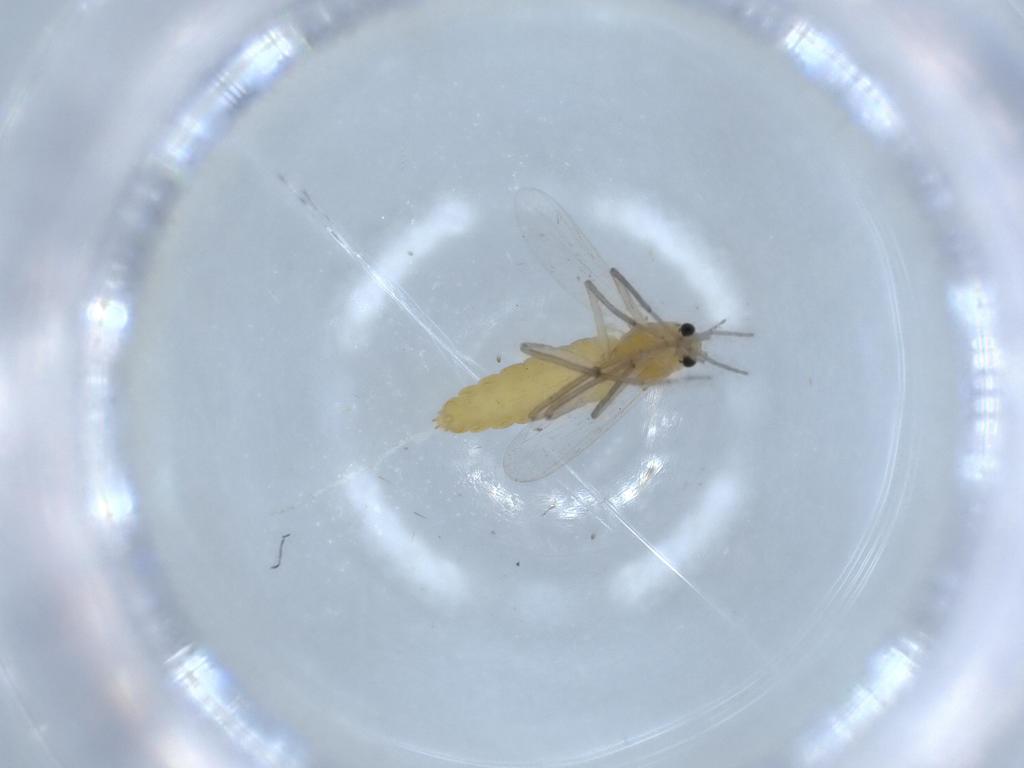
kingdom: Animalia
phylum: Arthropoda
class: Insecta
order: Diptera
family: Chironomidae
